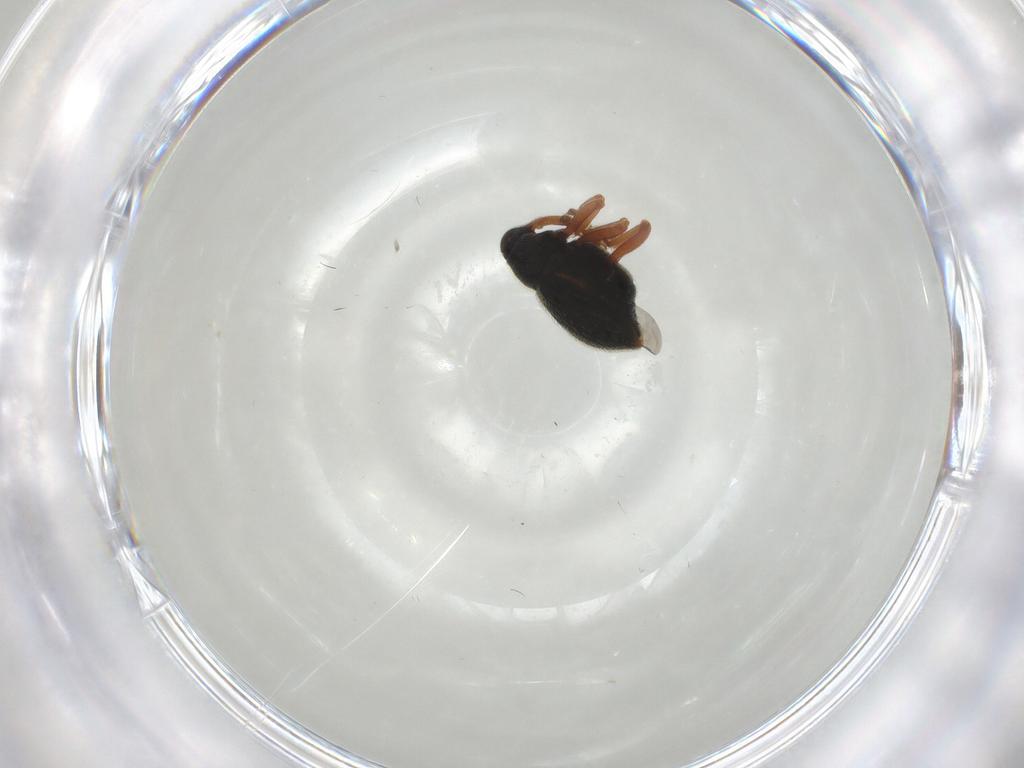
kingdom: Animalia
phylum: Arthropoda
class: Insecta
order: Coleoptera
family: Curculionidae
